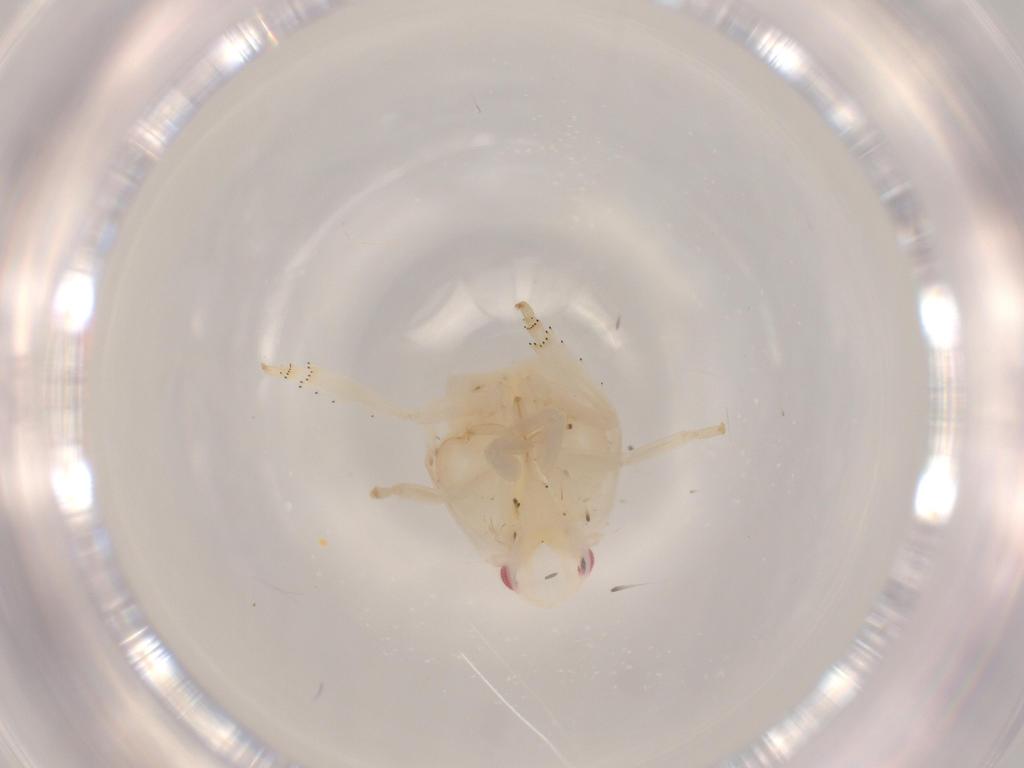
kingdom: Animalia
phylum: Arthropoda
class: Insecta
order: Hemiptera
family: Flatidae
